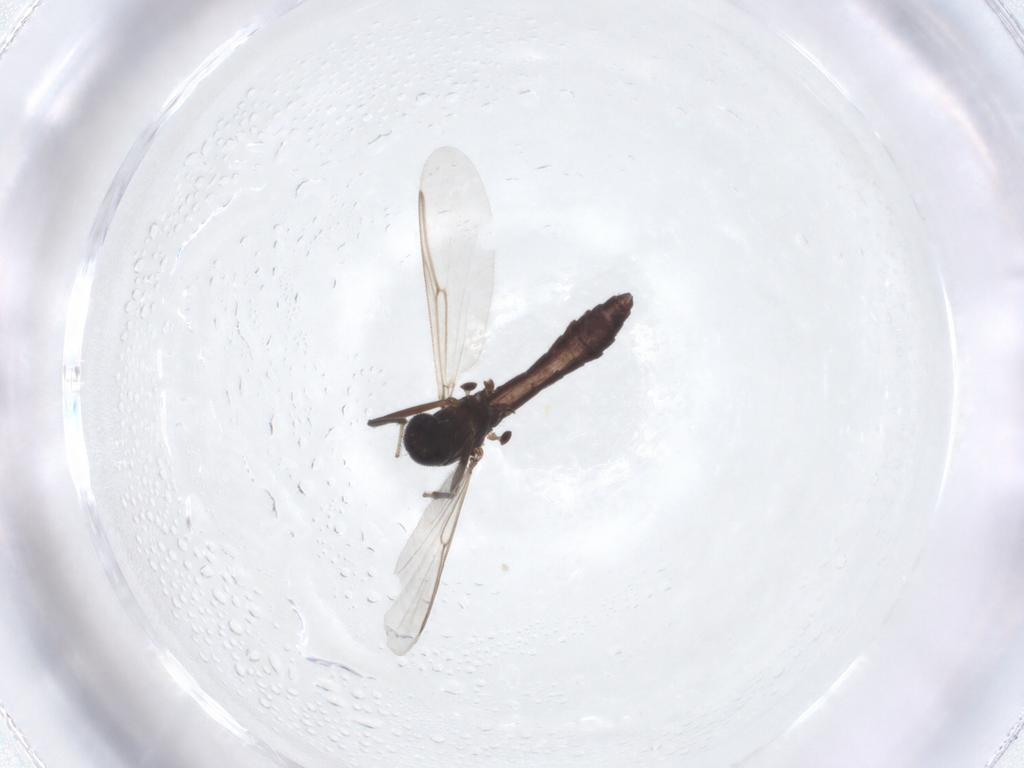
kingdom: Animalia
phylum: Arthropoda
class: Insecta
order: Diptera
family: Ceratopogonidae
